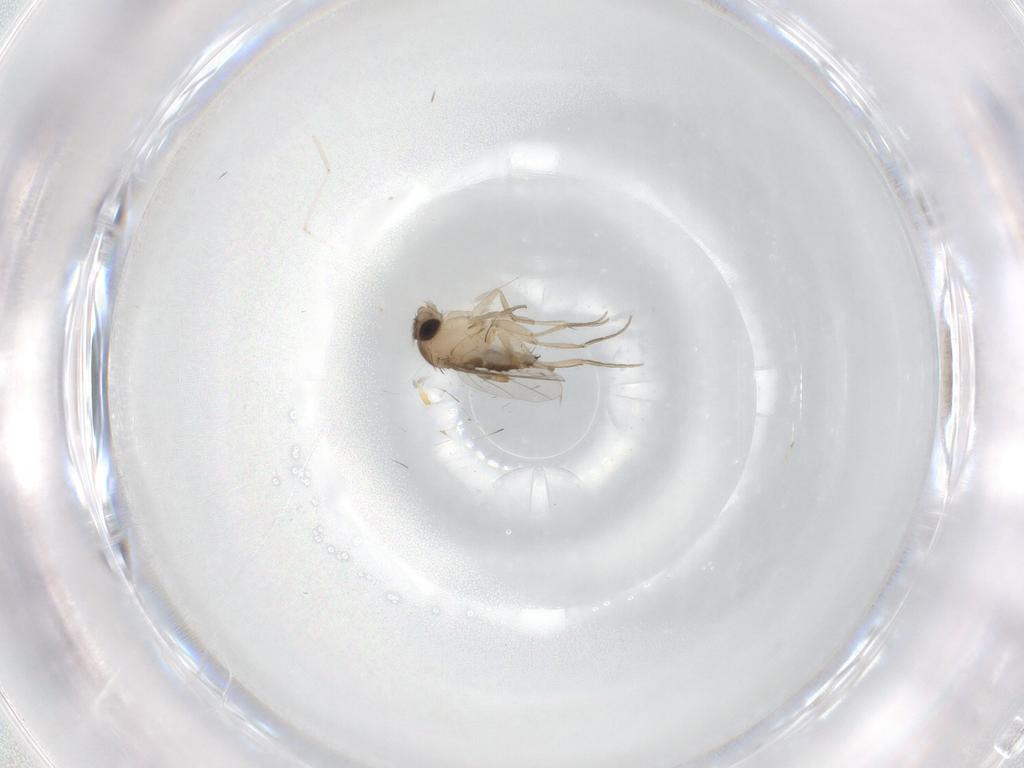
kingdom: Animalia
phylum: Arthropoda
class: Insecta
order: Diptera
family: Phoridae
